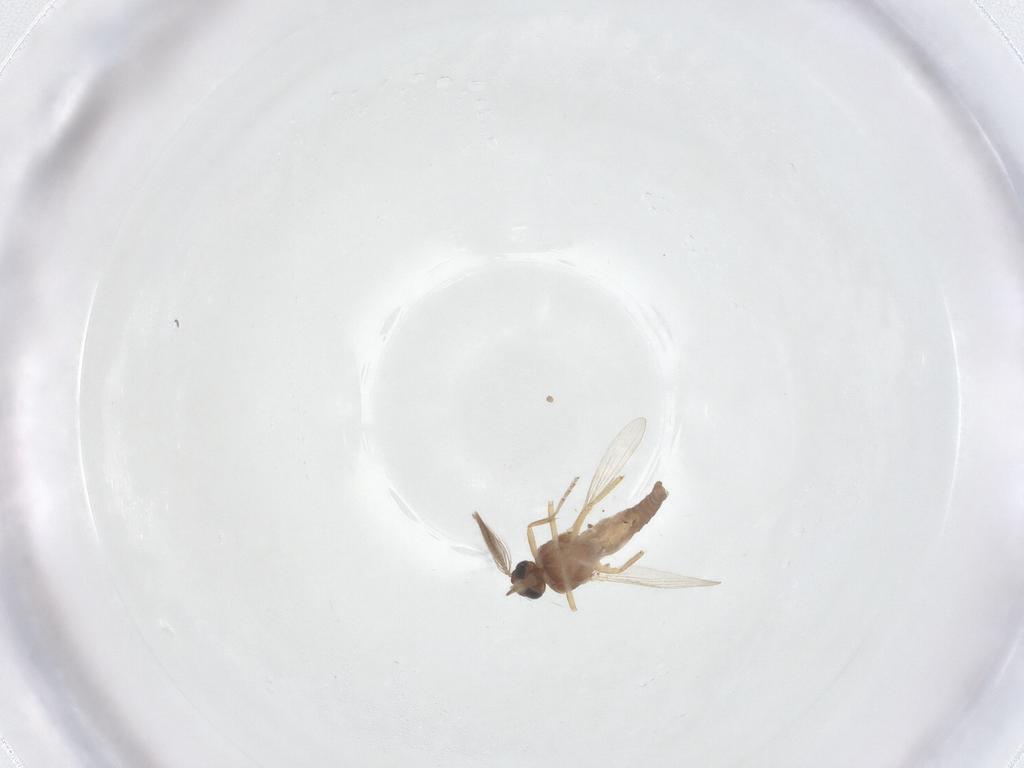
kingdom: Animalia
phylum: Arthropoda
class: Insecta
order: Diptera
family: Ceratopogonidae
